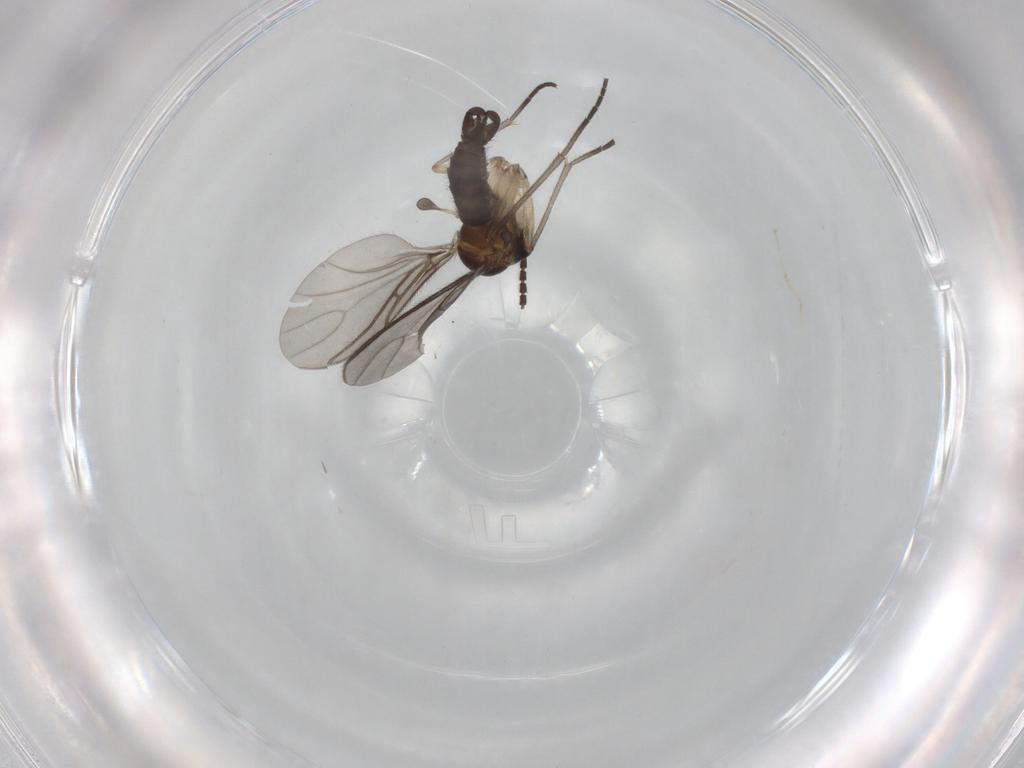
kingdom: Animalia
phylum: Arthropoda
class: Insecta
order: Diptera
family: Sciaridae
